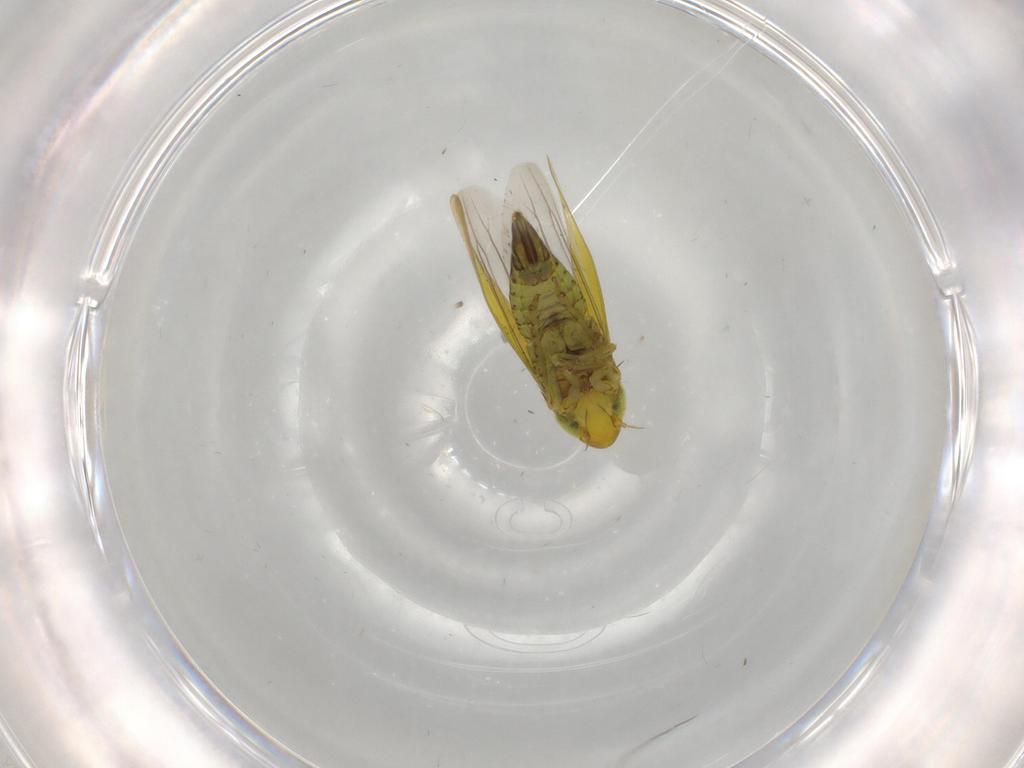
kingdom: Animalia
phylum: Arthropoda
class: Insecta
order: Hemiptera
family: Cicadellidae
